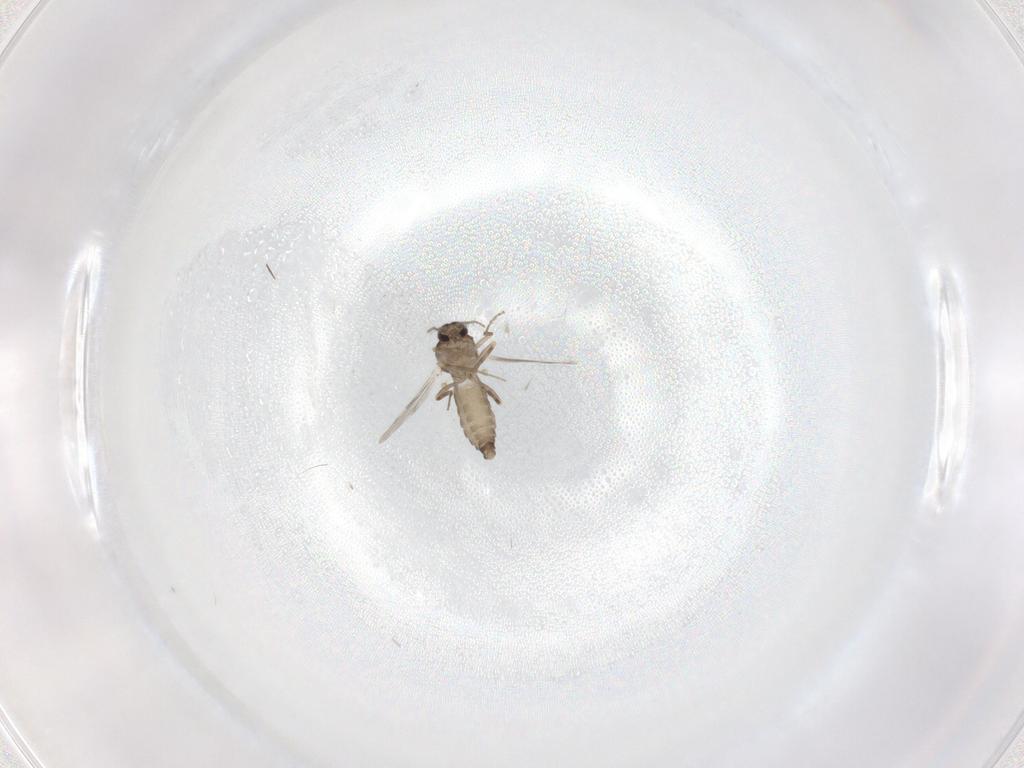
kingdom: Animalia
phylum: Arthropoda
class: Insecta
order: Diptera
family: Ceratopogonidae
